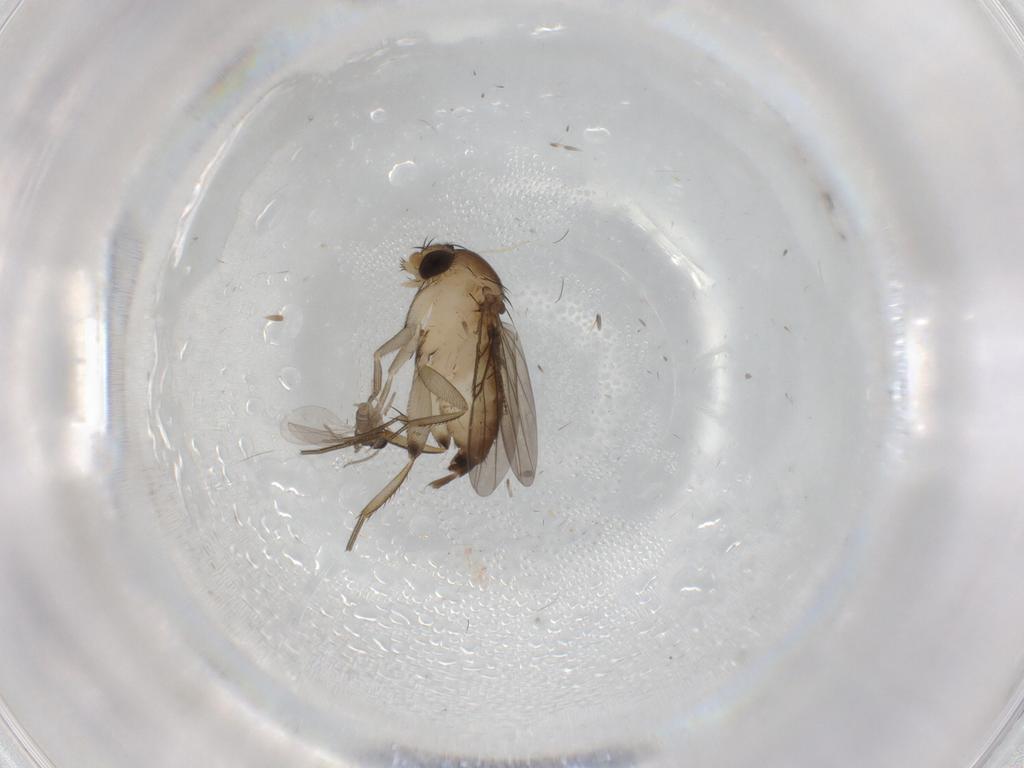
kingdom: Animalia
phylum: Arthropoda
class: Insecta
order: Diptera
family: Phoridae
